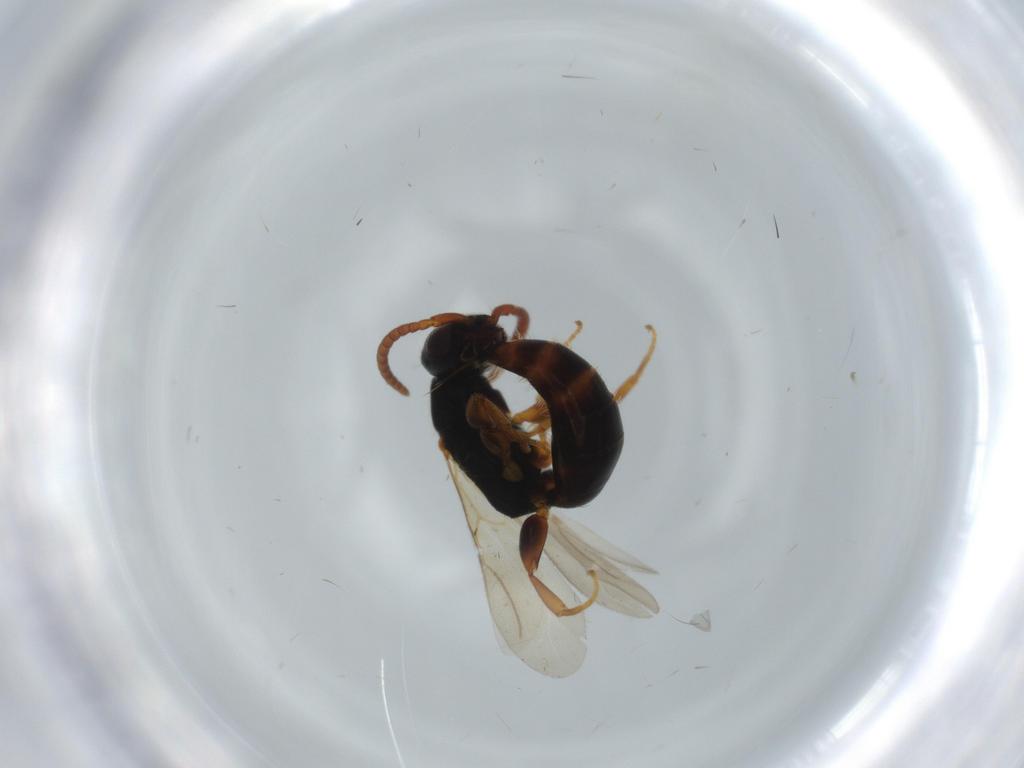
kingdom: Animalia
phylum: Arthropoda
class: Insecta
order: Hymenoptera
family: Bethylidae
